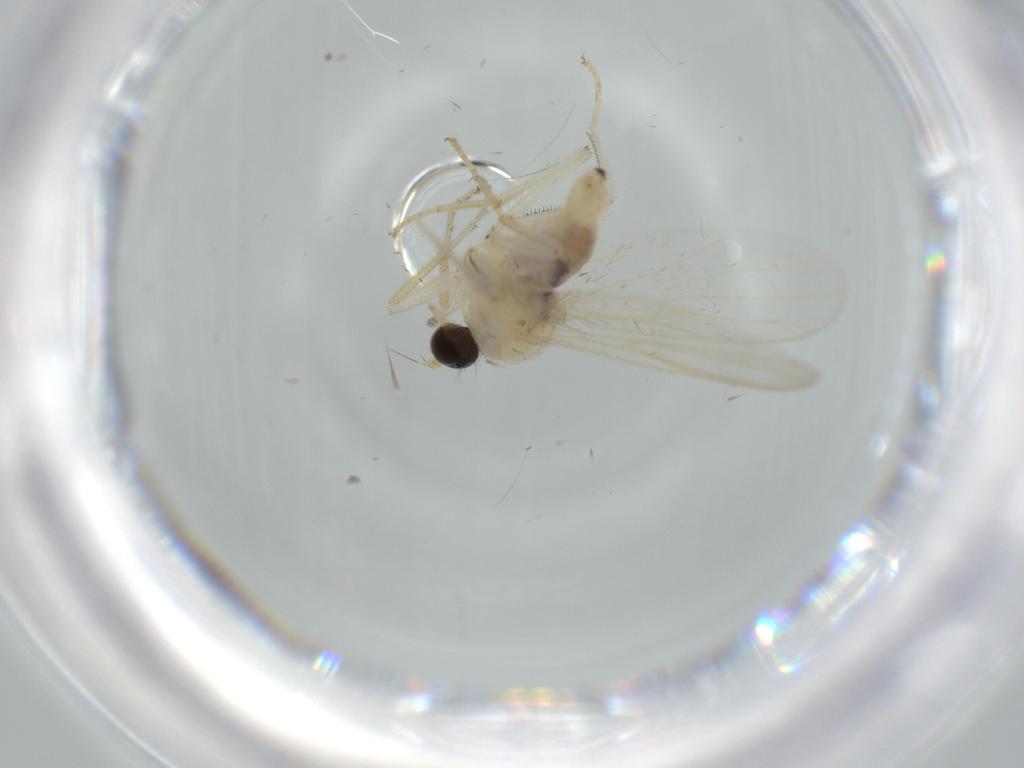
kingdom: Animalia
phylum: Arthropoda
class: Insecta
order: Diptera
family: Hybotidae
